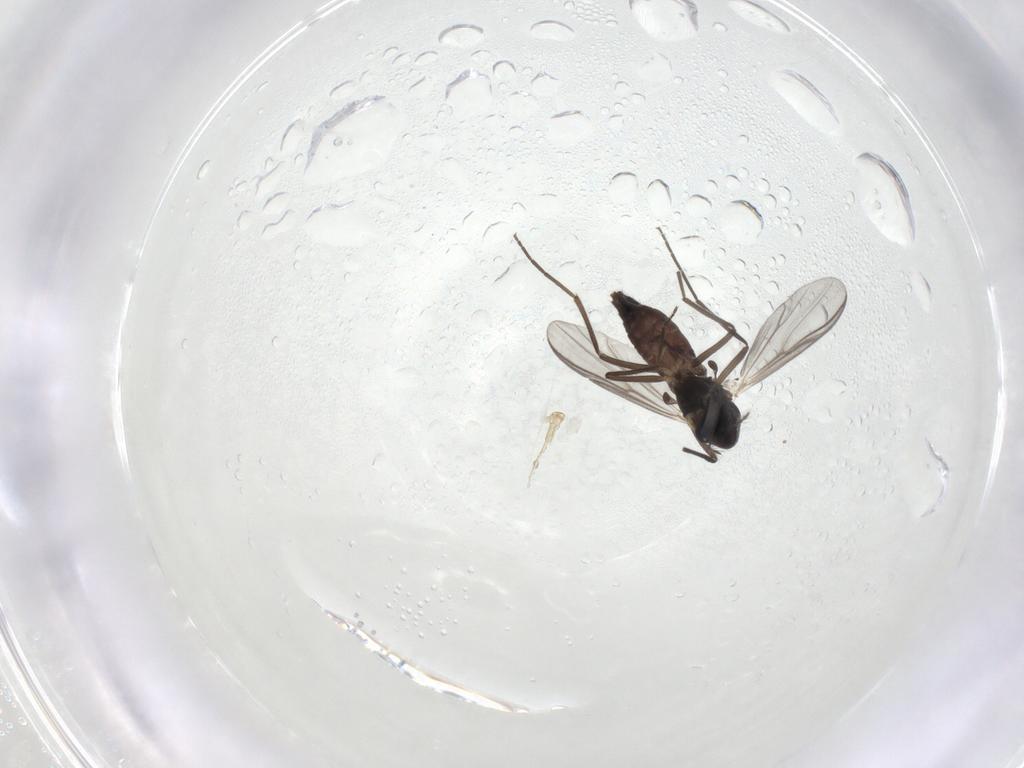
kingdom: Animalia
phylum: Arthropoda
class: Insecta
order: Diptera
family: Chironomidae
